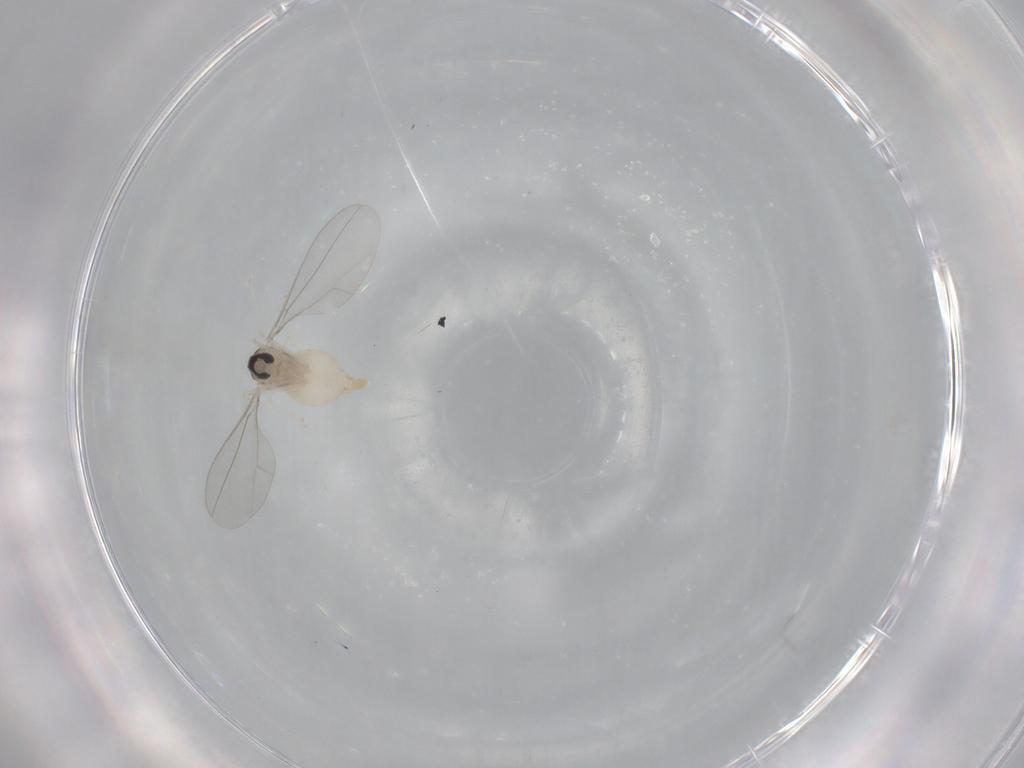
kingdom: Animalia
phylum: Arthropoda
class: Insecta
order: Diptera
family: Cecidomyiidae
